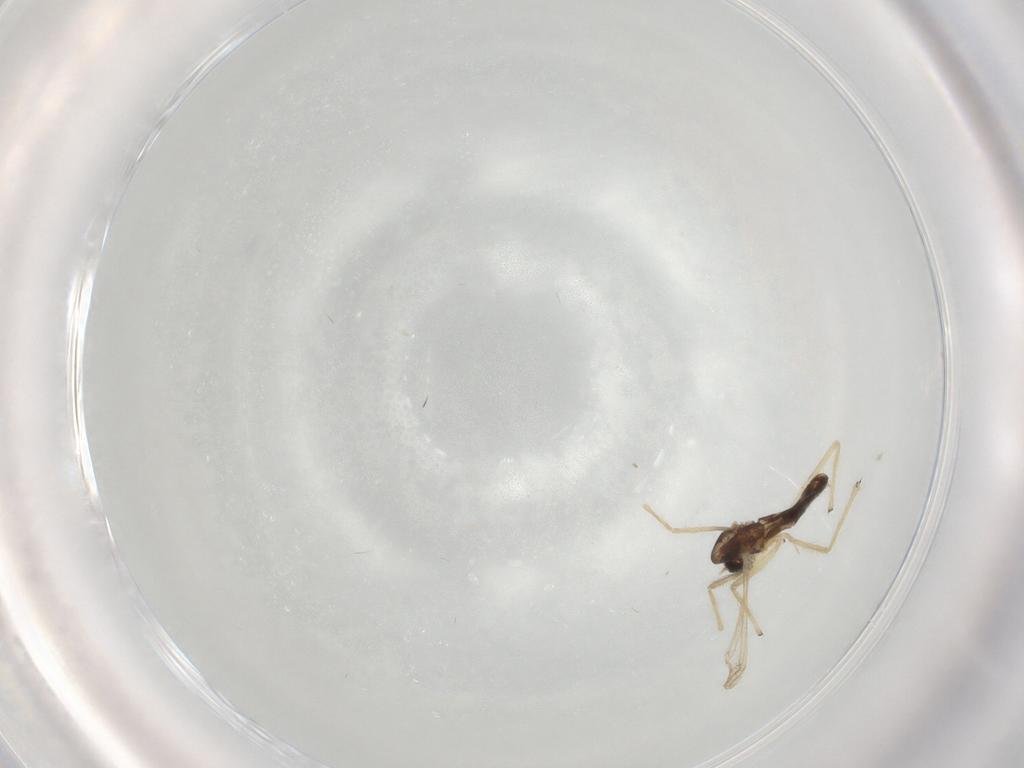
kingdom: Animalia
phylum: Arthropoda
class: Insecta
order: Diptera
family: Chironomidae
